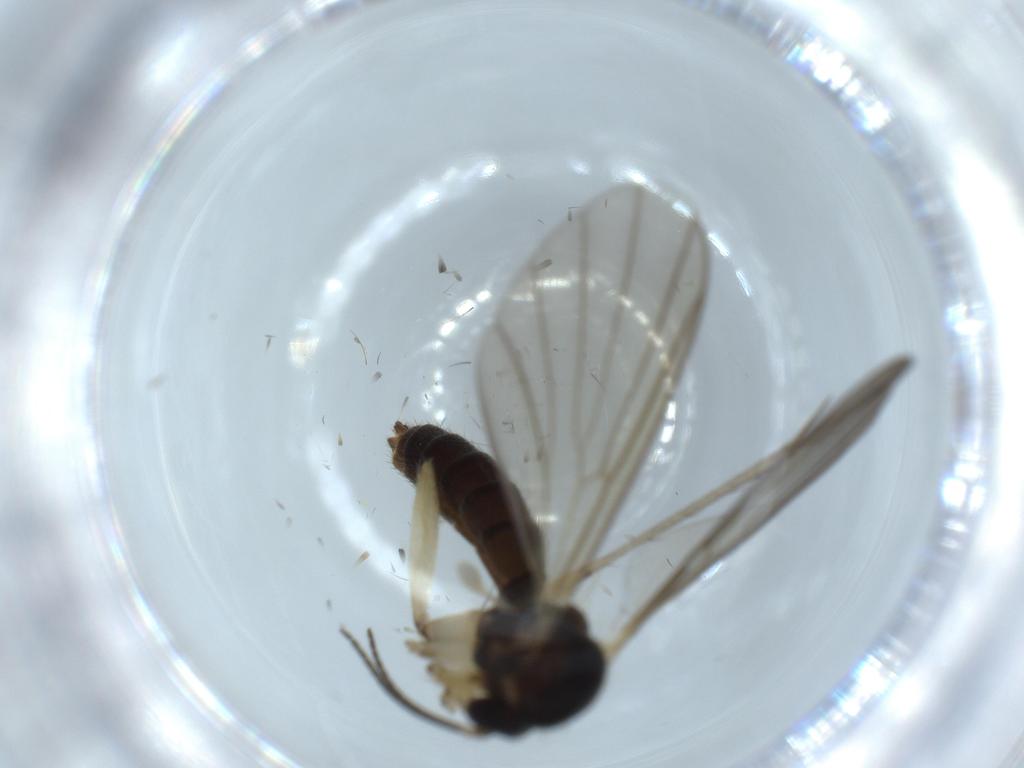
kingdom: Animalia
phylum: Arthropoda
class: Insecta
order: Diptera
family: Mycetophilidae
